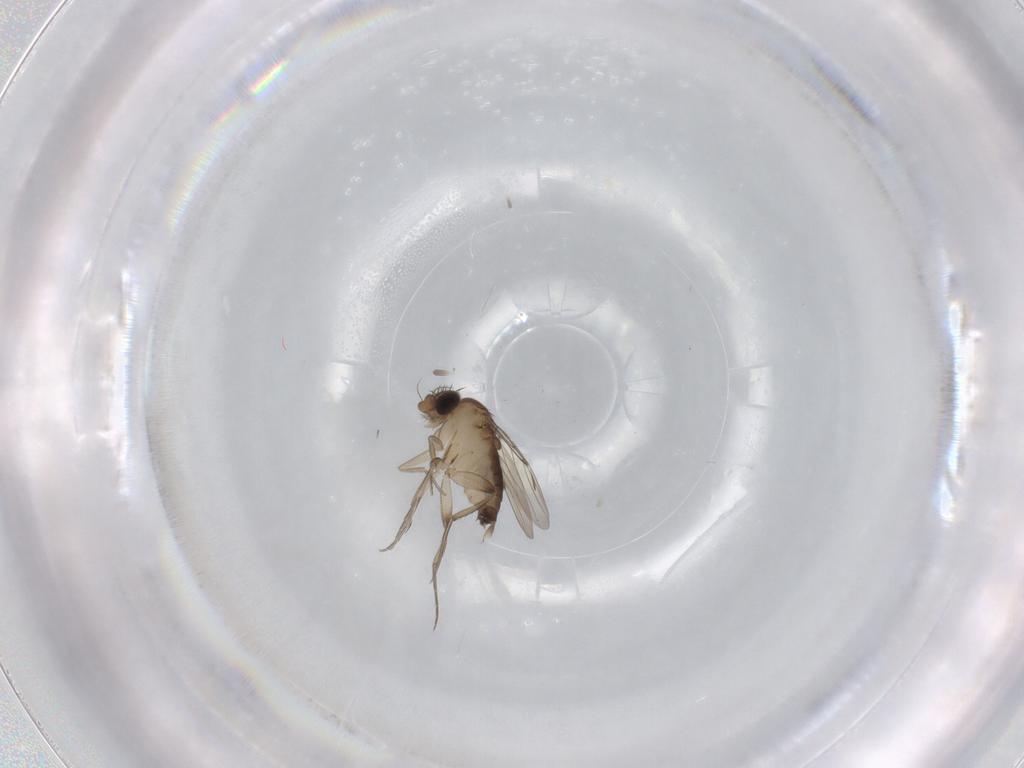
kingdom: Animalia
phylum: Arthropoda
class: Insecta
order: Diptera
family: Phoridae
